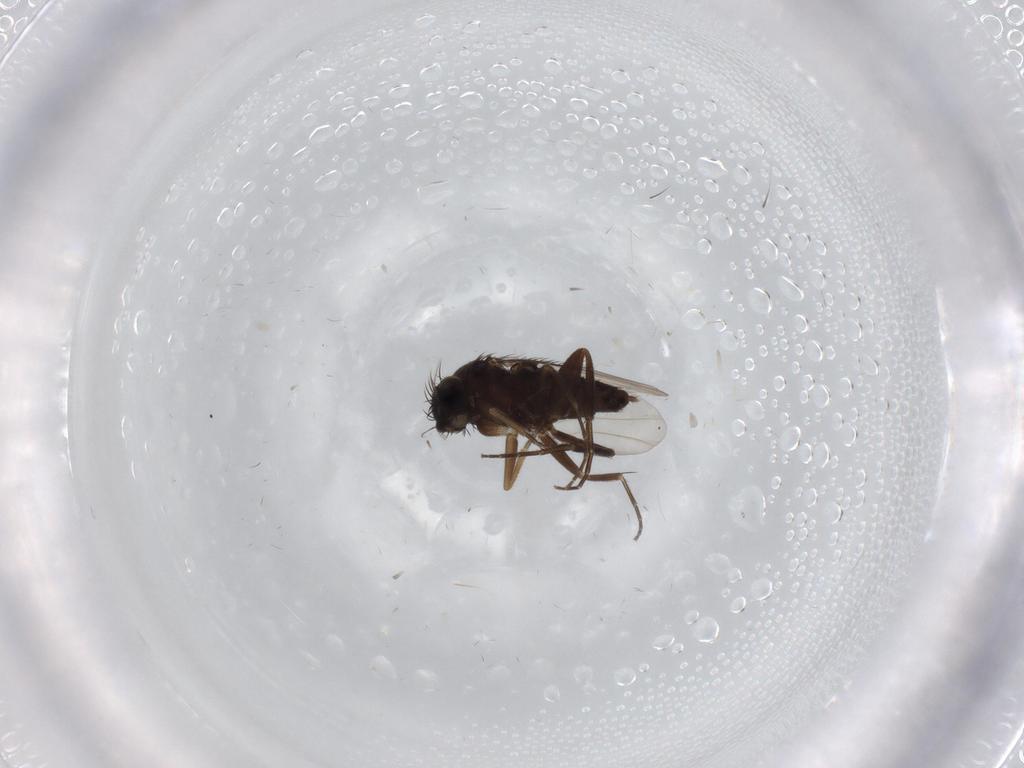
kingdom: Animalia
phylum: Arthropoda
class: Insecta
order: Diptera
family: Phoridae
